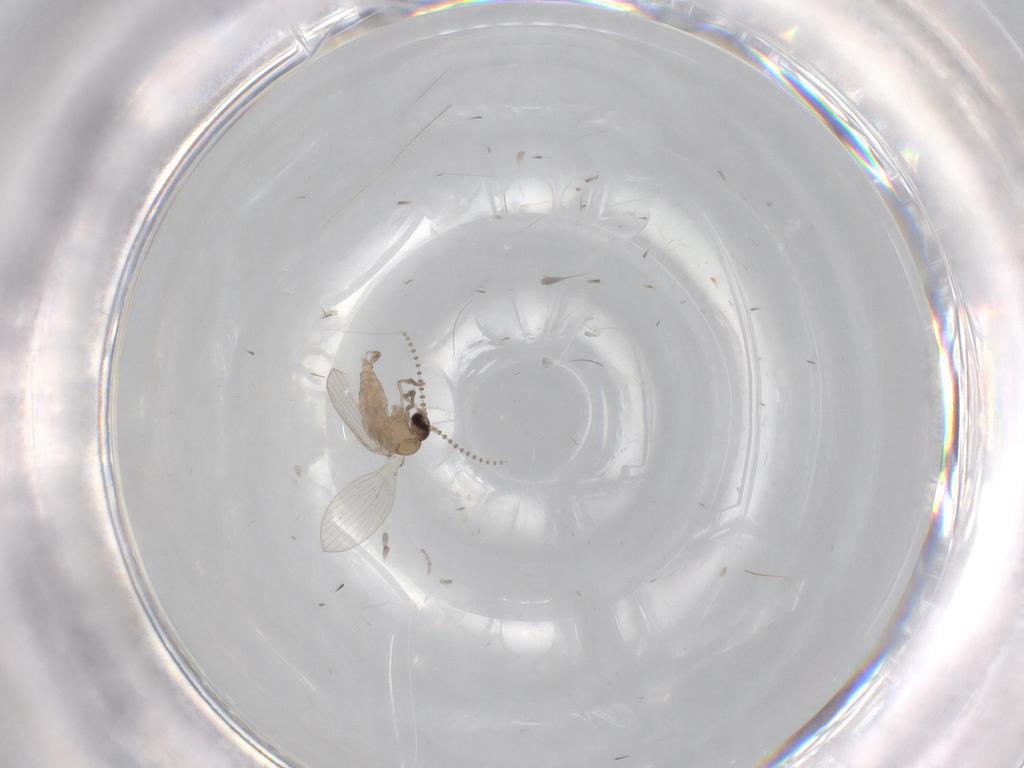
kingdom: Animalia
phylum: Arthropoda
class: Insecta
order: Diptera
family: Psychodidae
